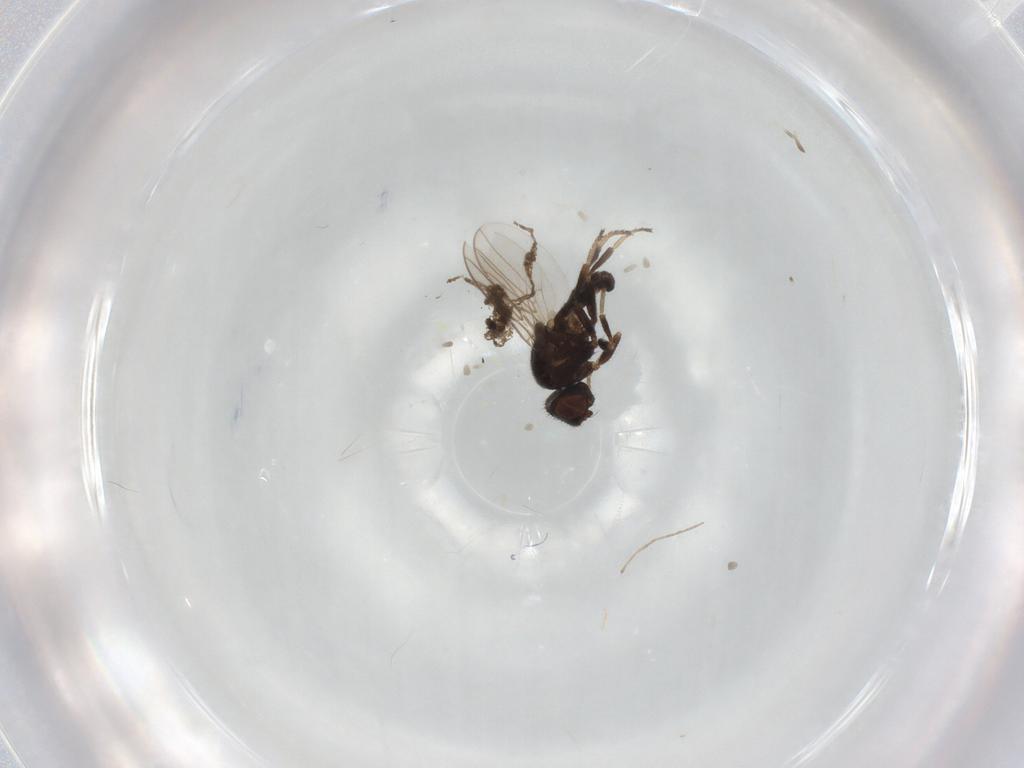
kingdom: Animalia
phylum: Arthropoda
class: Insecta
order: Diptera
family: Chloropidae
